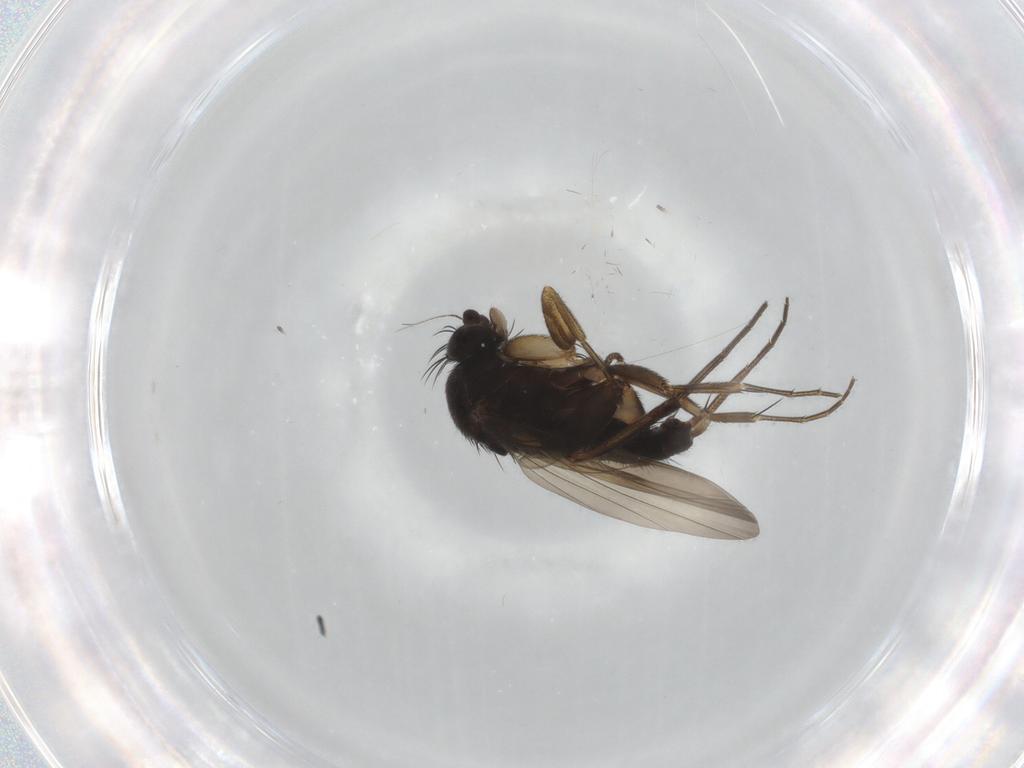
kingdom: Animalia
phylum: Arthropoda
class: Insecta
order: Diptera
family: Phoridae
